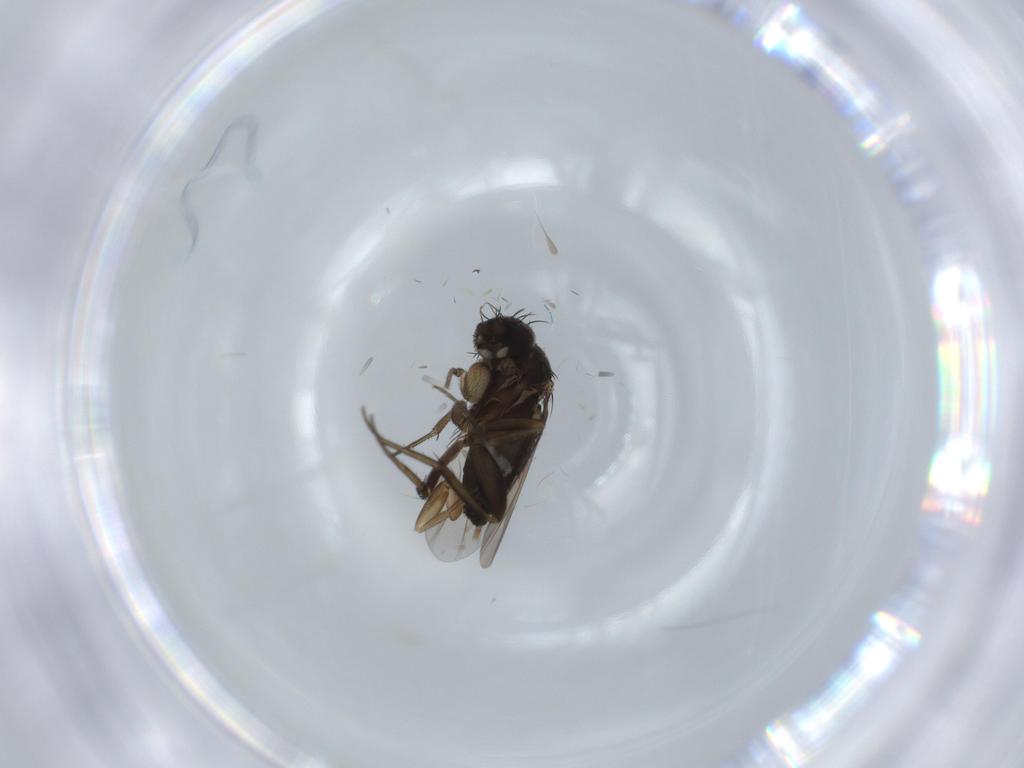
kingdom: Animalia
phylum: Arthropoda
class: Insecta
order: Diptera
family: Phoridae
